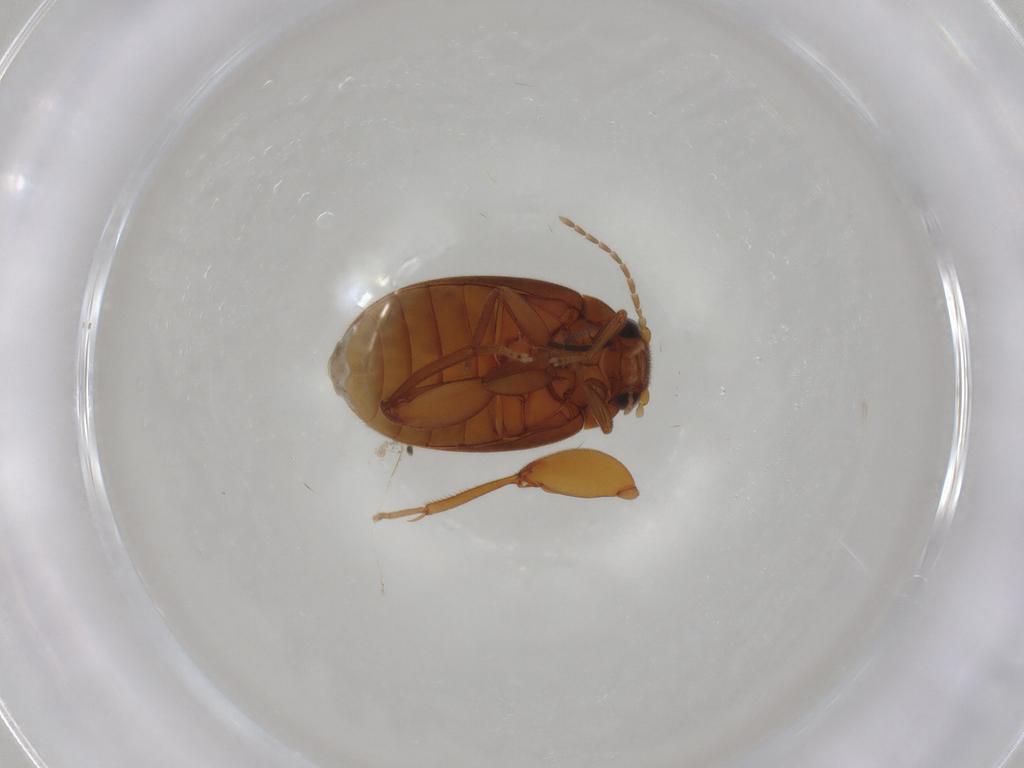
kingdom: Animalia
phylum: Arthropoda
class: Insecta
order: Coleoptera
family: Scirtidae
